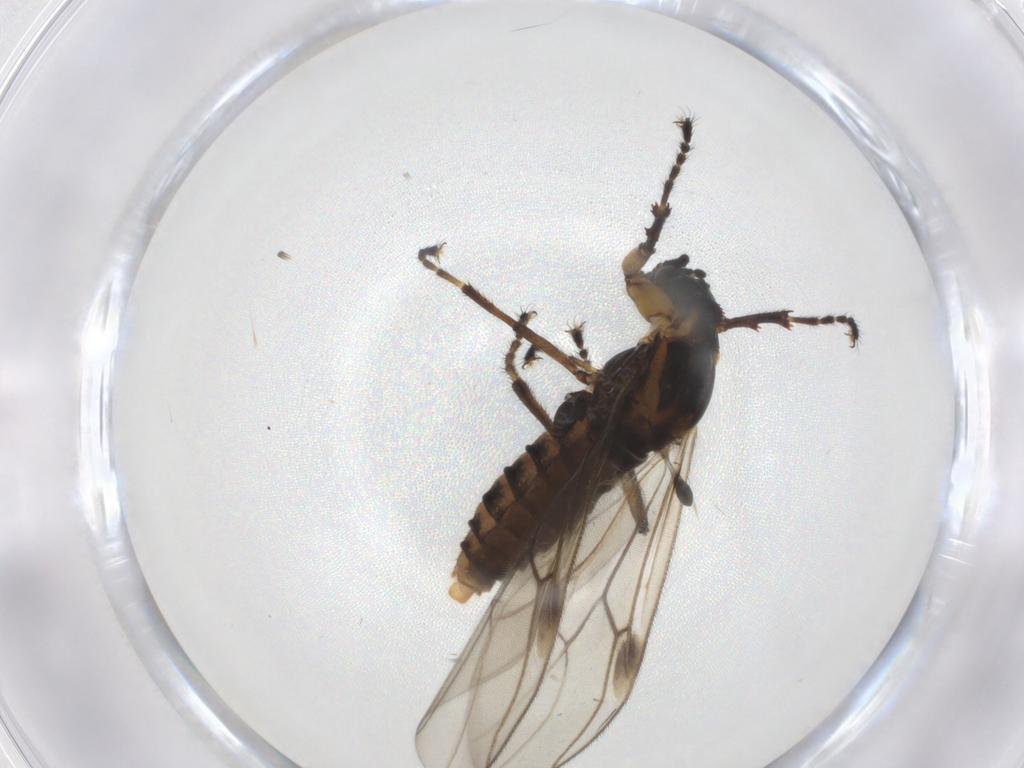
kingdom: Animalia
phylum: Arthropoda
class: Insecta
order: Diptera
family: Bibionidae
